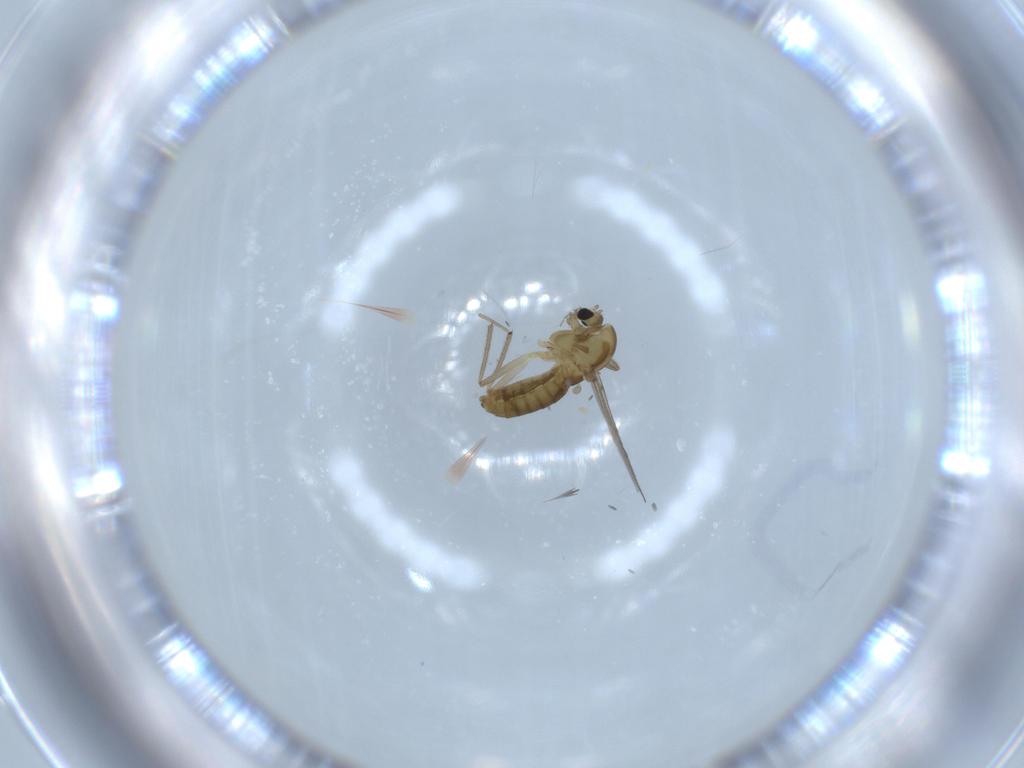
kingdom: Animalia
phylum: Arthropoda
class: Insecta
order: Diptera
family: Chironomidae
